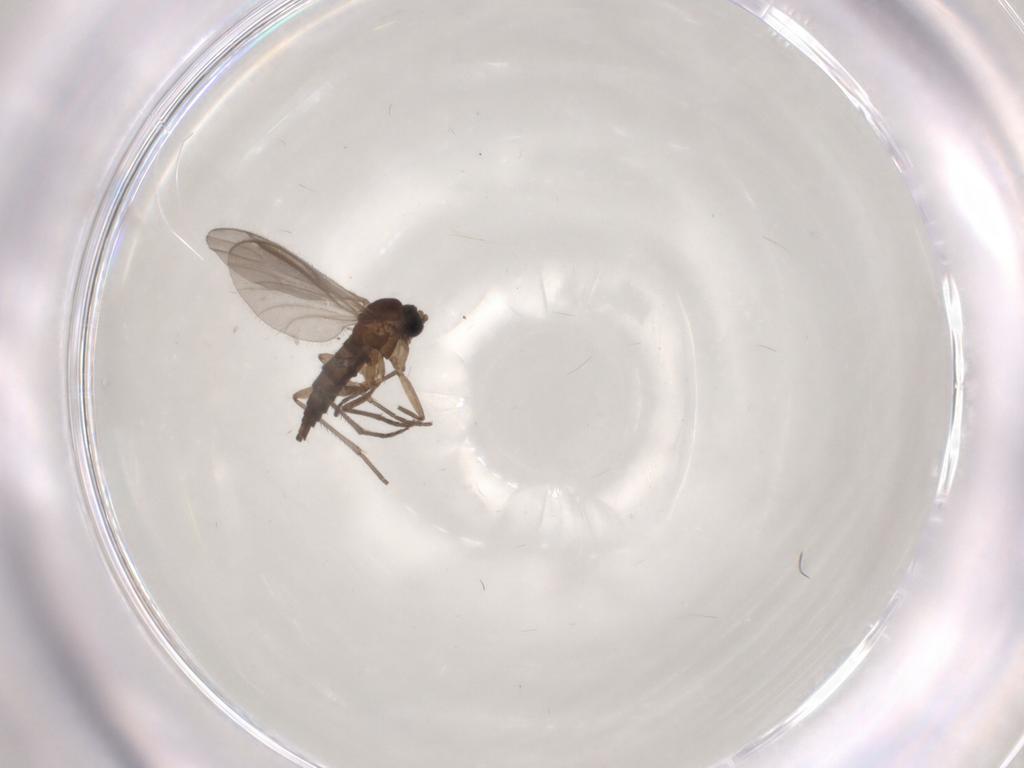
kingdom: Animalia
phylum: Arthropoda
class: Insecta
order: Diptera
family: Sciaridae
